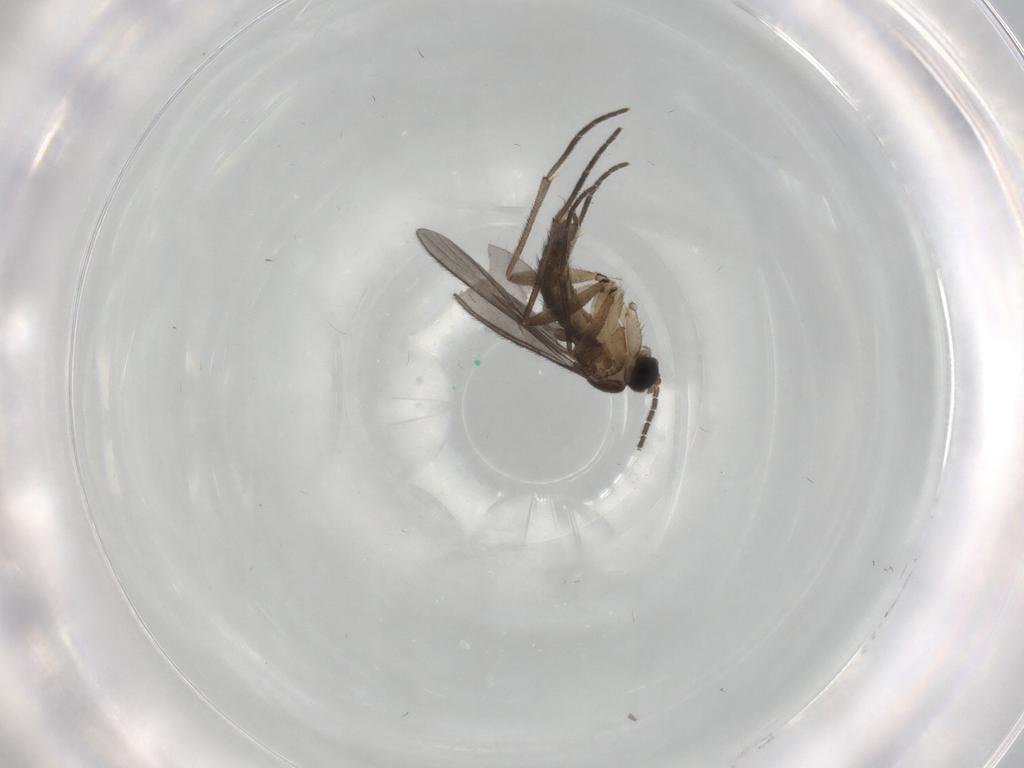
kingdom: Animalia
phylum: Arthropoda
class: Insecta
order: Diptera
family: Sciaridae
